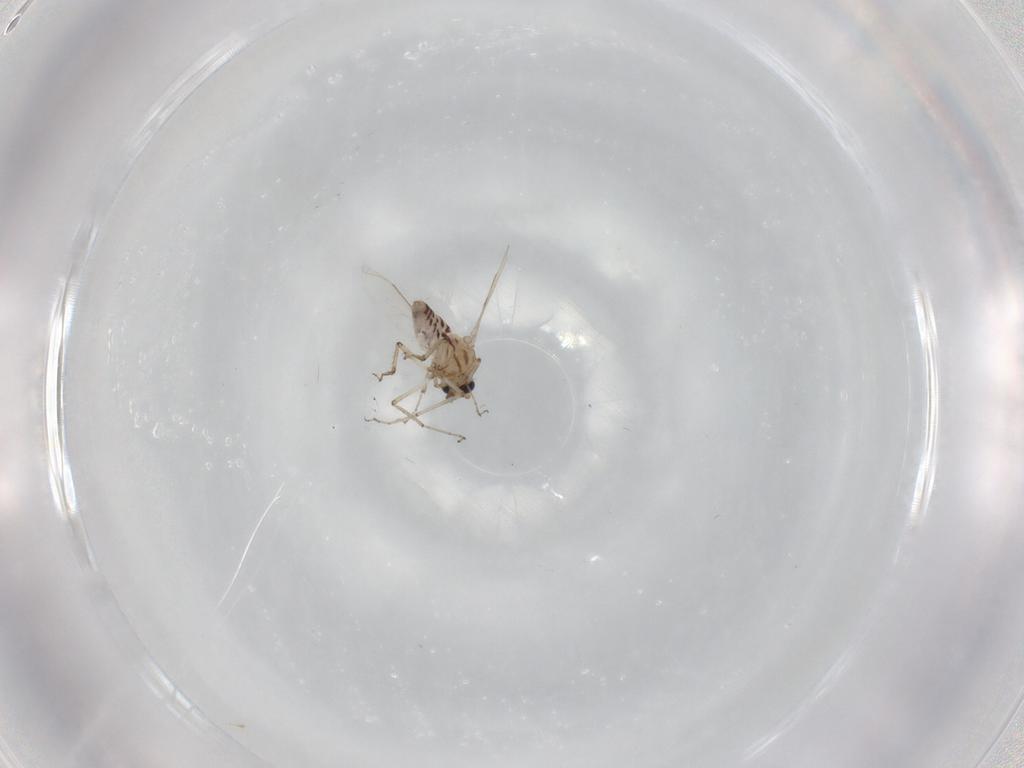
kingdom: Animalia
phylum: Arthropoda
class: Insecta
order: Diptera
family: Ceratopogonidae
